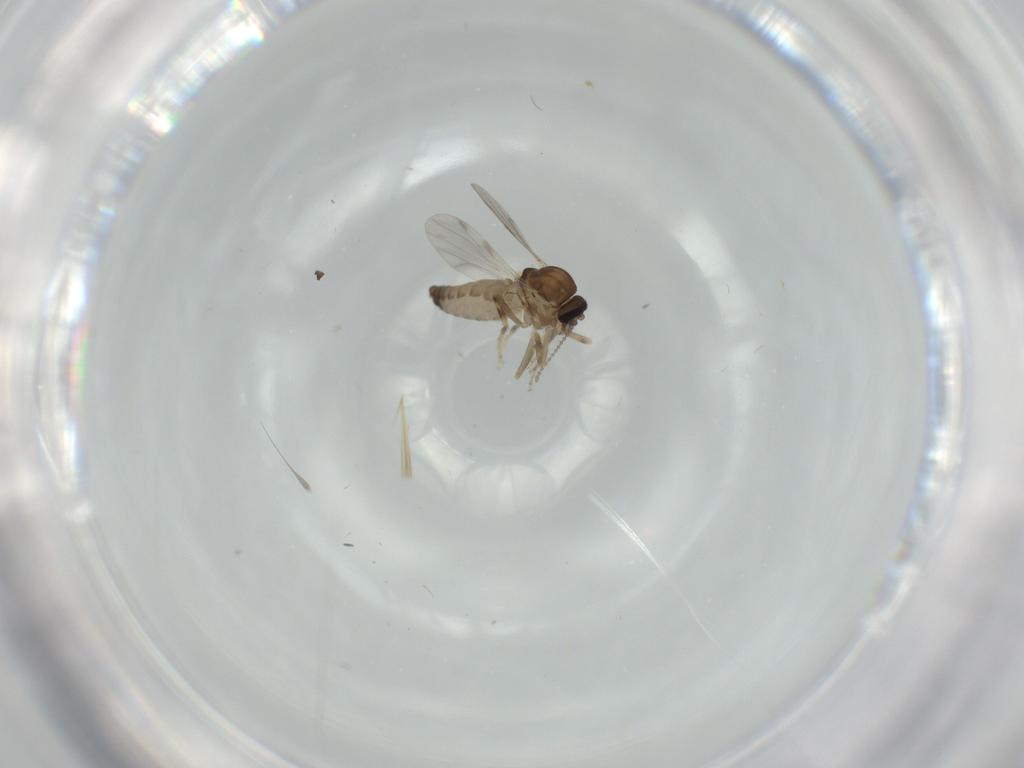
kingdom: Animalia
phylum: Arthropoda
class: Insecta
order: Diptera
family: Ceratopogonidae
